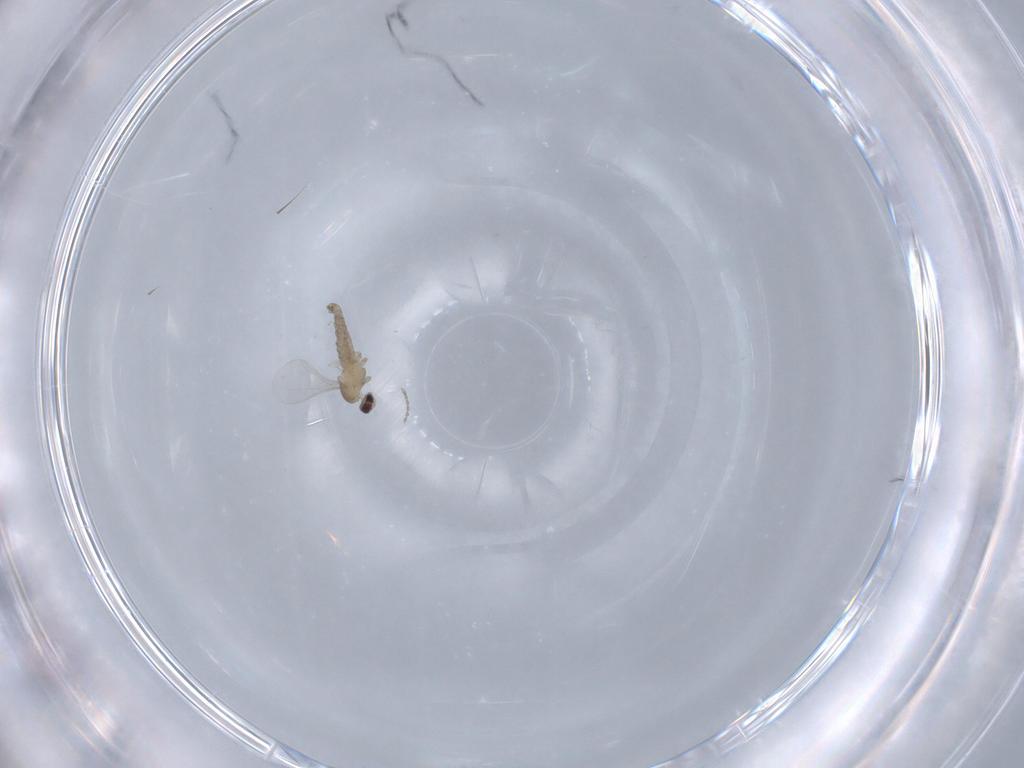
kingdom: Animalia
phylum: Arthropoda
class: Insecta
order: Diptera
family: Cecidomyiidae
